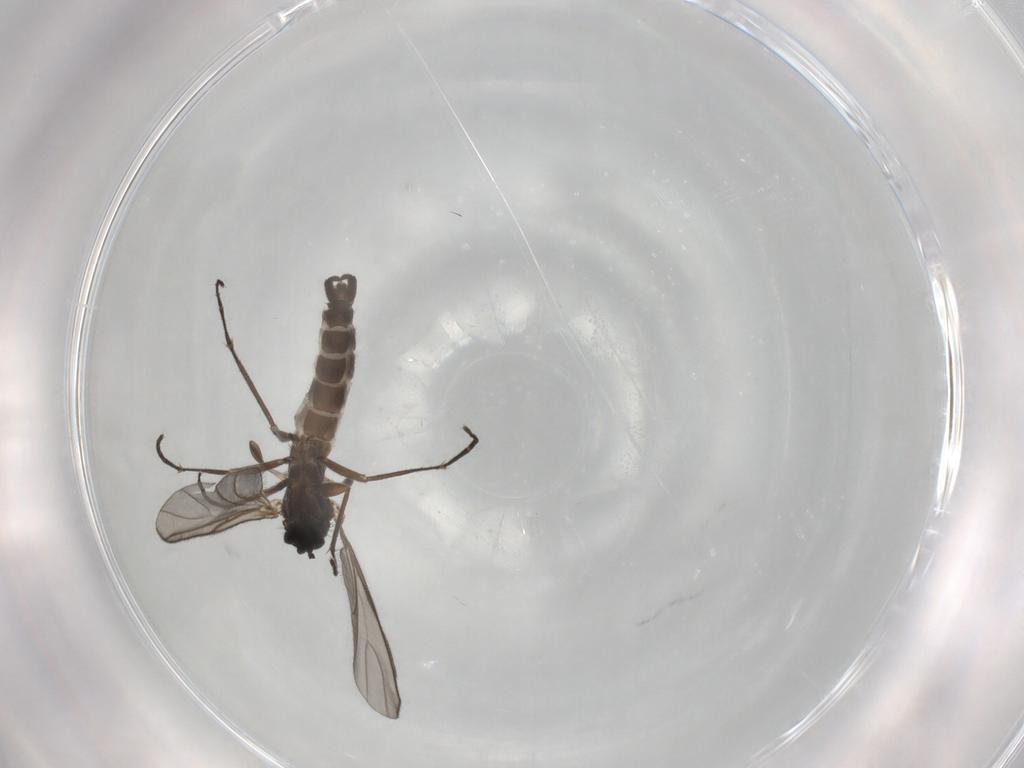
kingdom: Animalia
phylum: Arthropoda
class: Insecta
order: Diptera
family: Sciaridae
